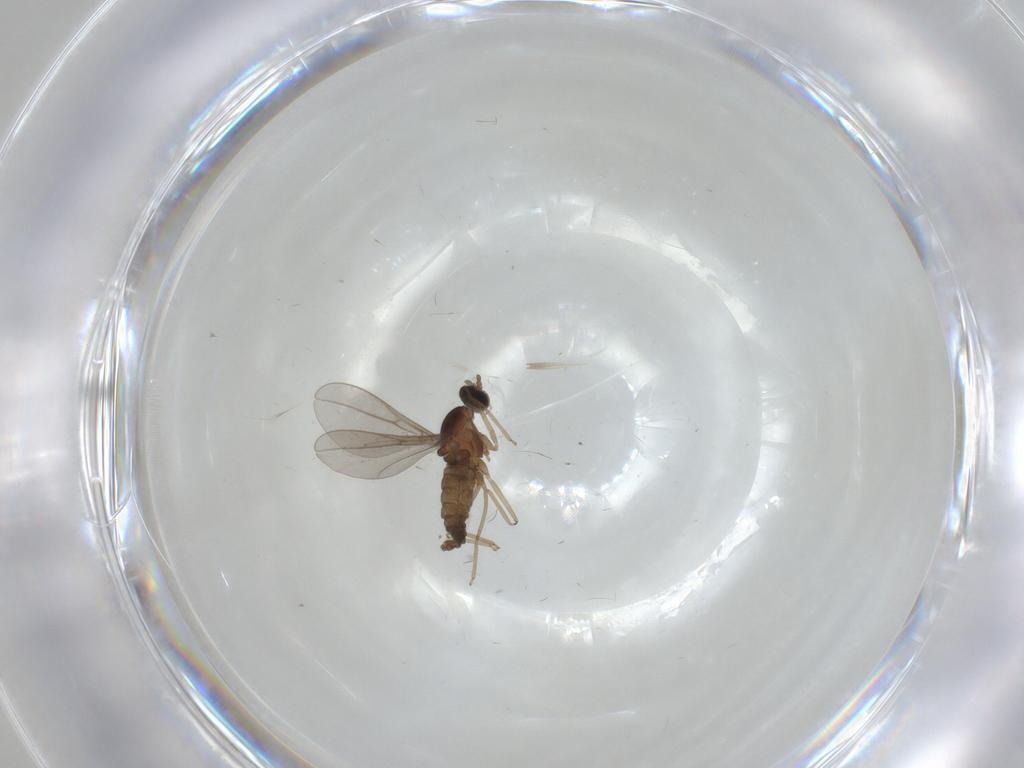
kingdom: Animalia
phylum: Arthropoda
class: Insecta
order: Diptera
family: Cecidomyiidae
